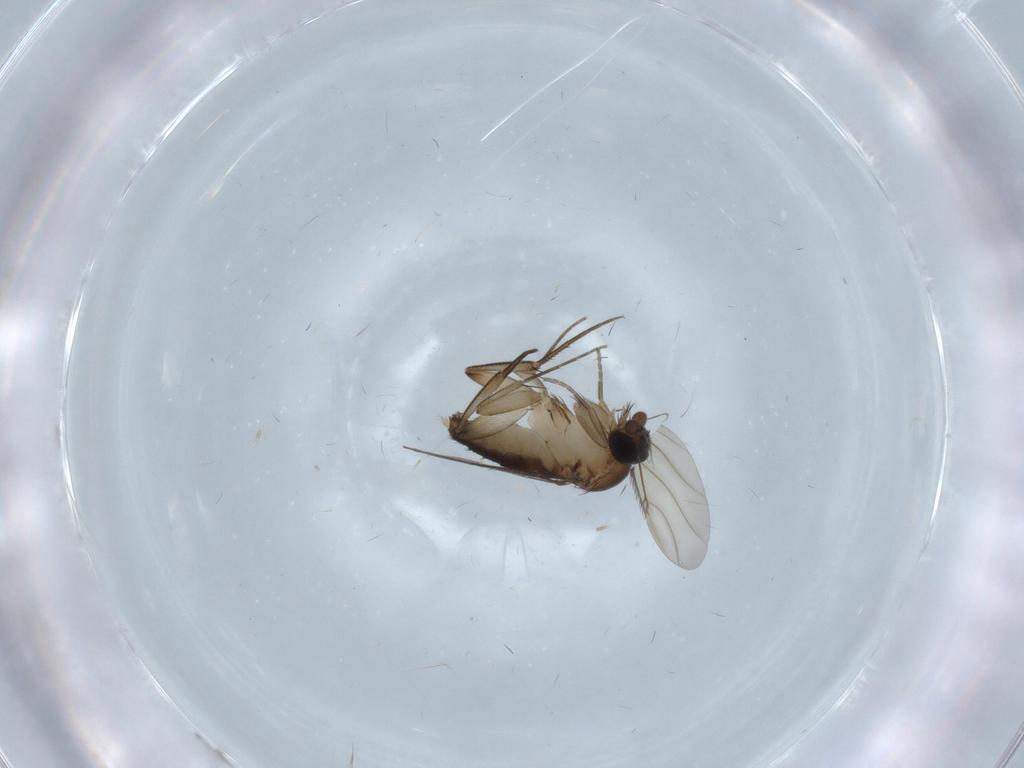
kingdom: Animalia
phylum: Arthropoda
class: Insecta
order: Diptera
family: Phoridae
